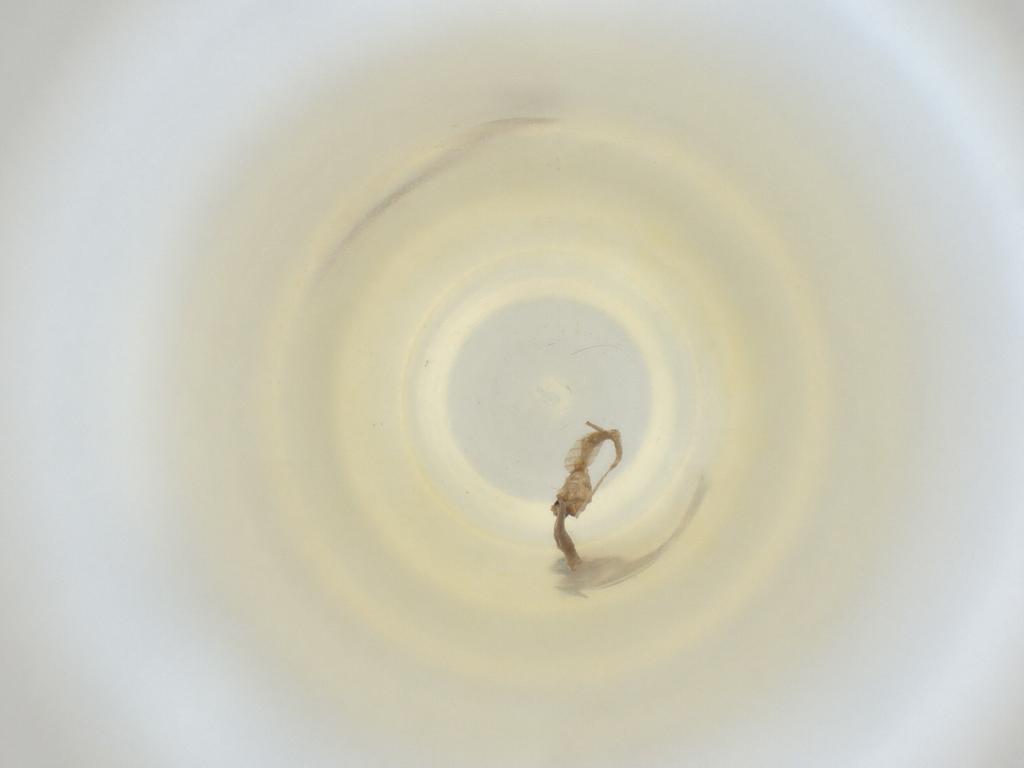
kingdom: Animalia
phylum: Arthropoda
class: Insecta
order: Diptera
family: Cecidomyiidae
